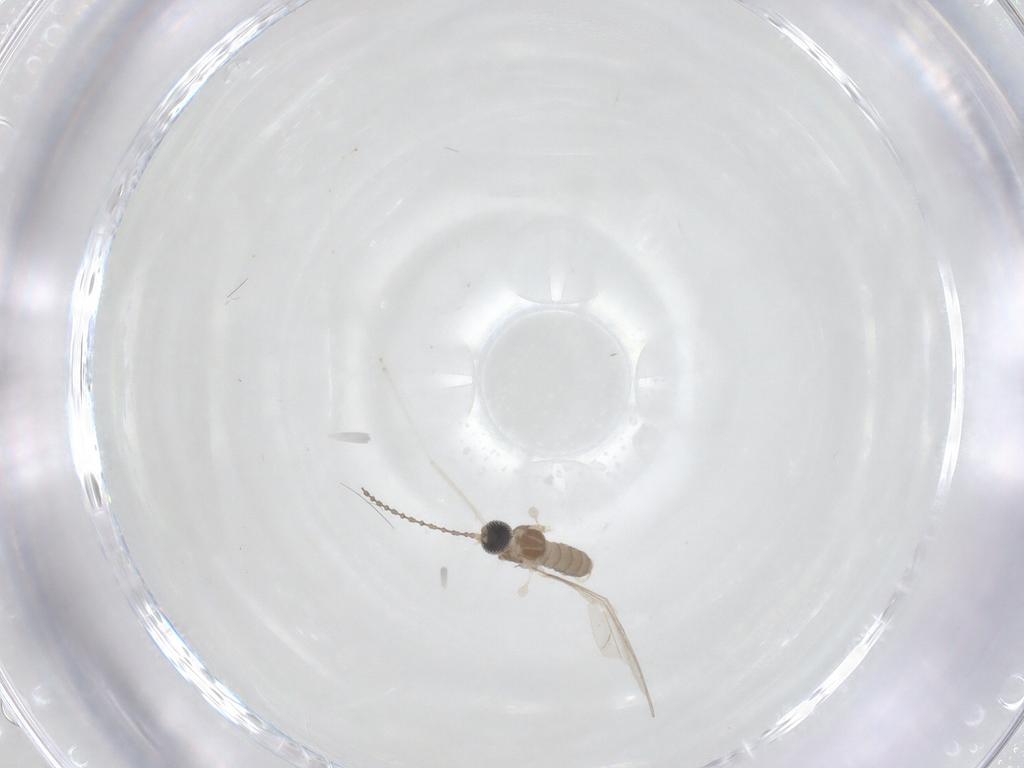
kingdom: Animalia
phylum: Arthropoda
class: Insecta
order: Diptera
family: Cecidomyiidae
